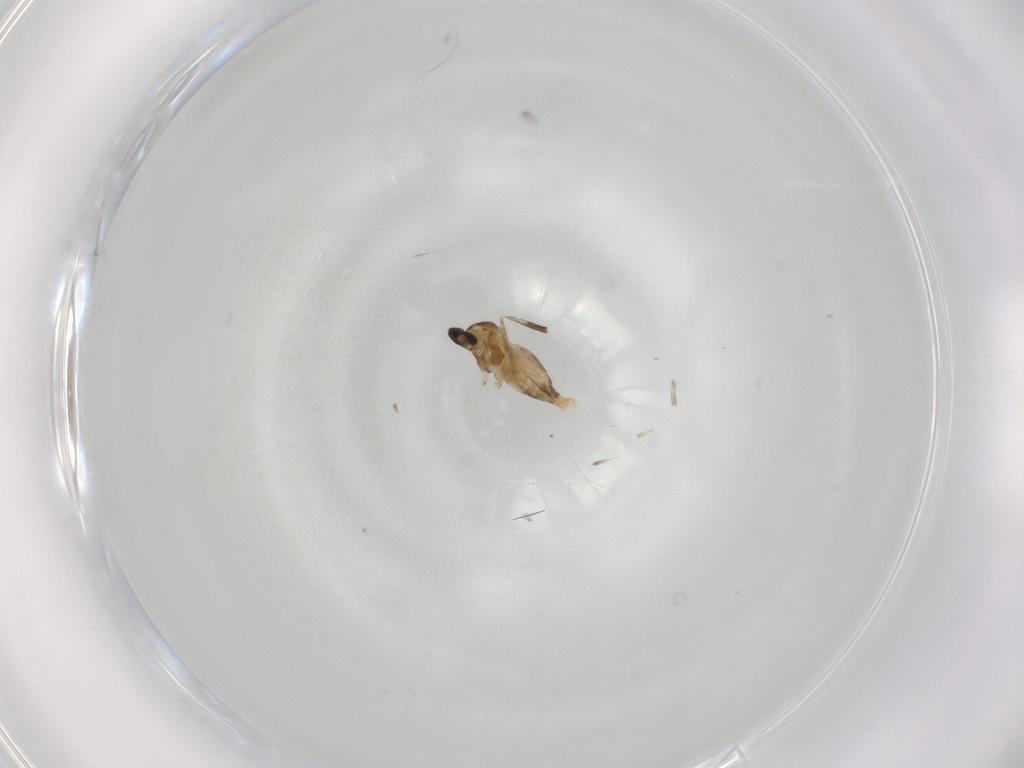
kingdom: Animalia
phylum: Arthropoda
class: Insecta
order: Diptera
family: Cecidomyiidae
